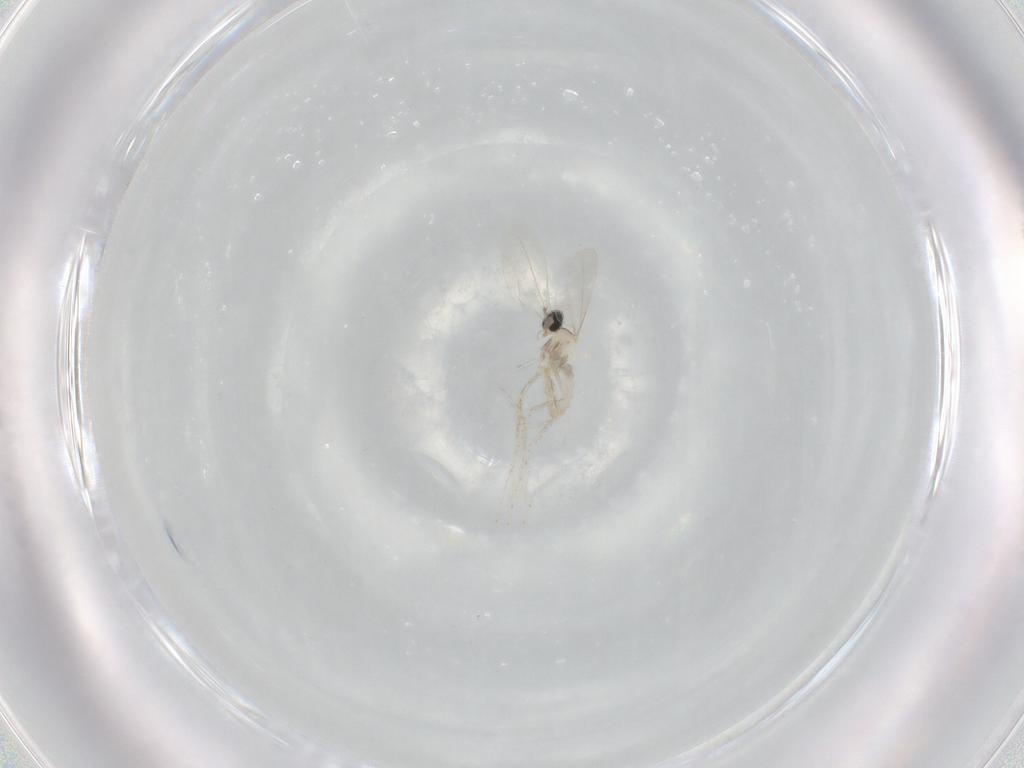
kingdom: Animalia
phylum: Arthropoda
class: Insecta
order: Diptera
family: Cecidomyiidae
